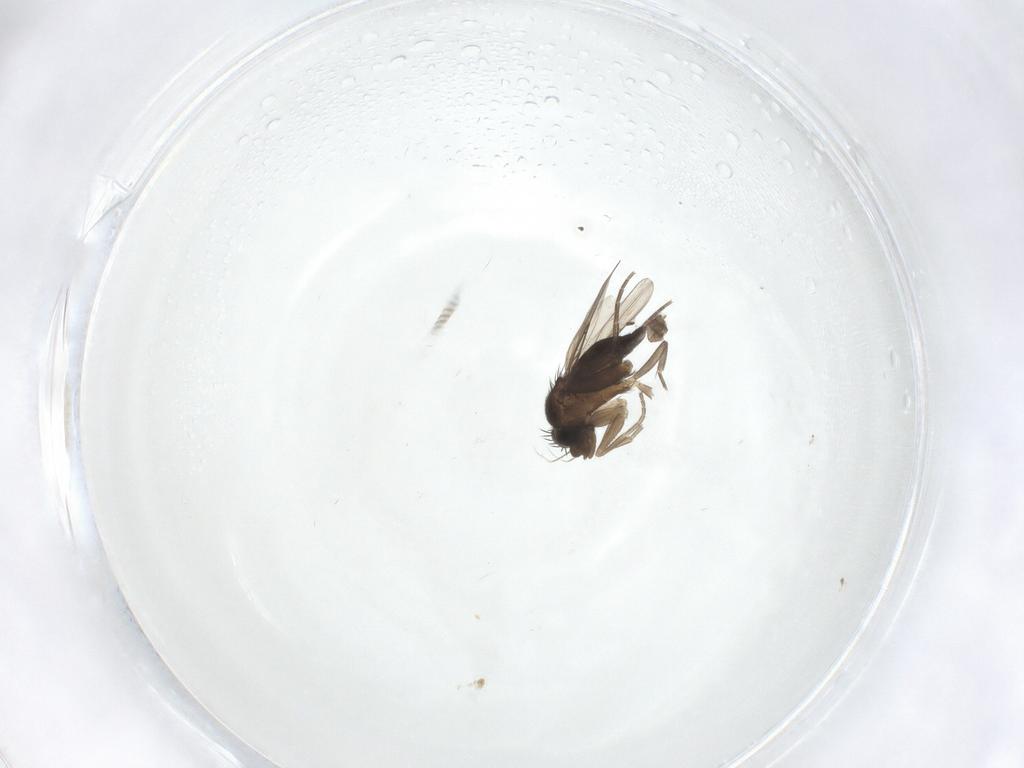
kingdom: Animalia
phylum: Arthropoda
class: Insecta
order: Diptera
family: Phoridae
